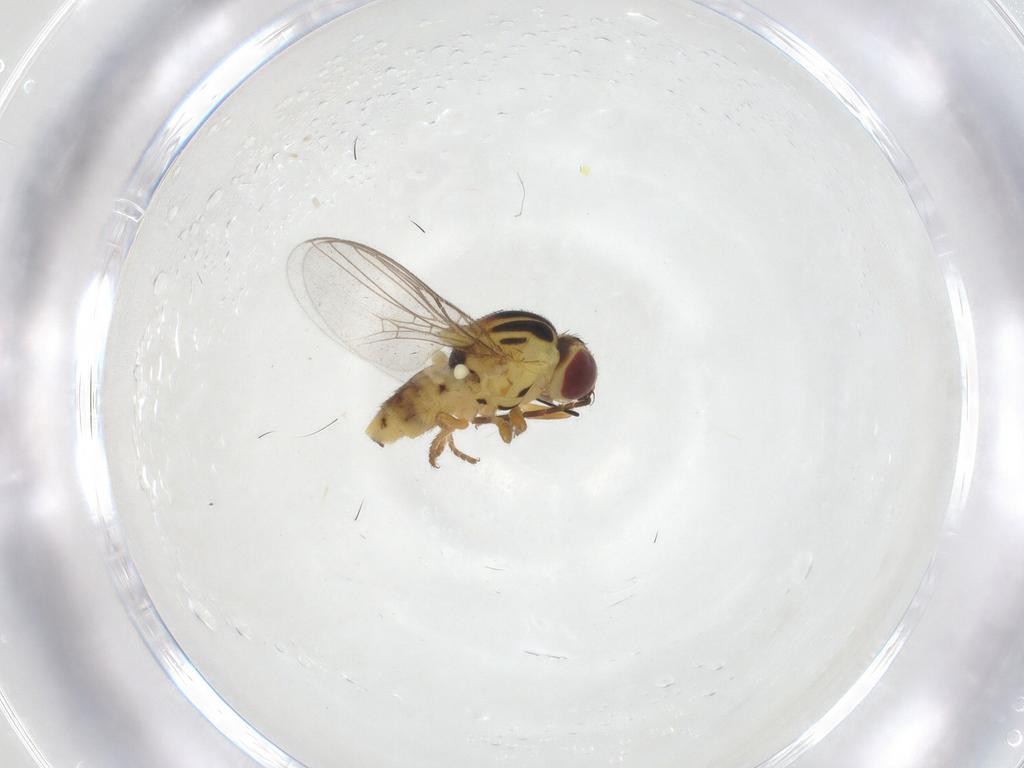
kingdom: Animalia
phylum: Arthropoda
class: Insecta
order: Diptera
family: Chloropidae
